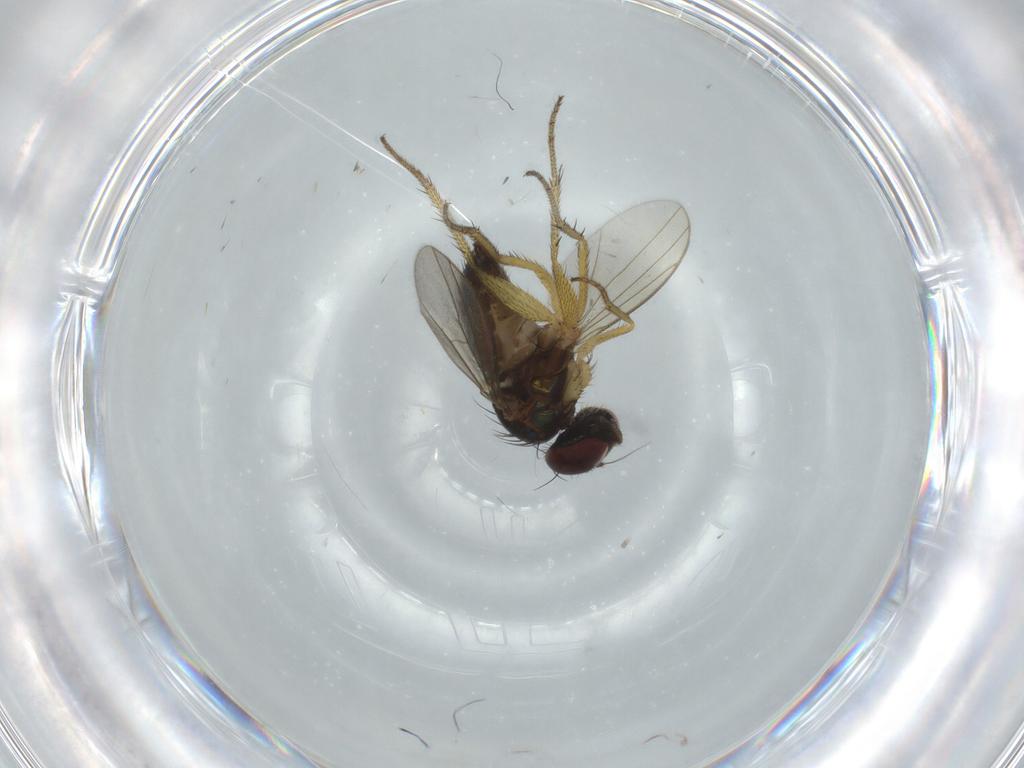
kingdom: Animalia
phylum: Arthropoda
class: Insecta
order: Diptera
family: Dolichopodidae
